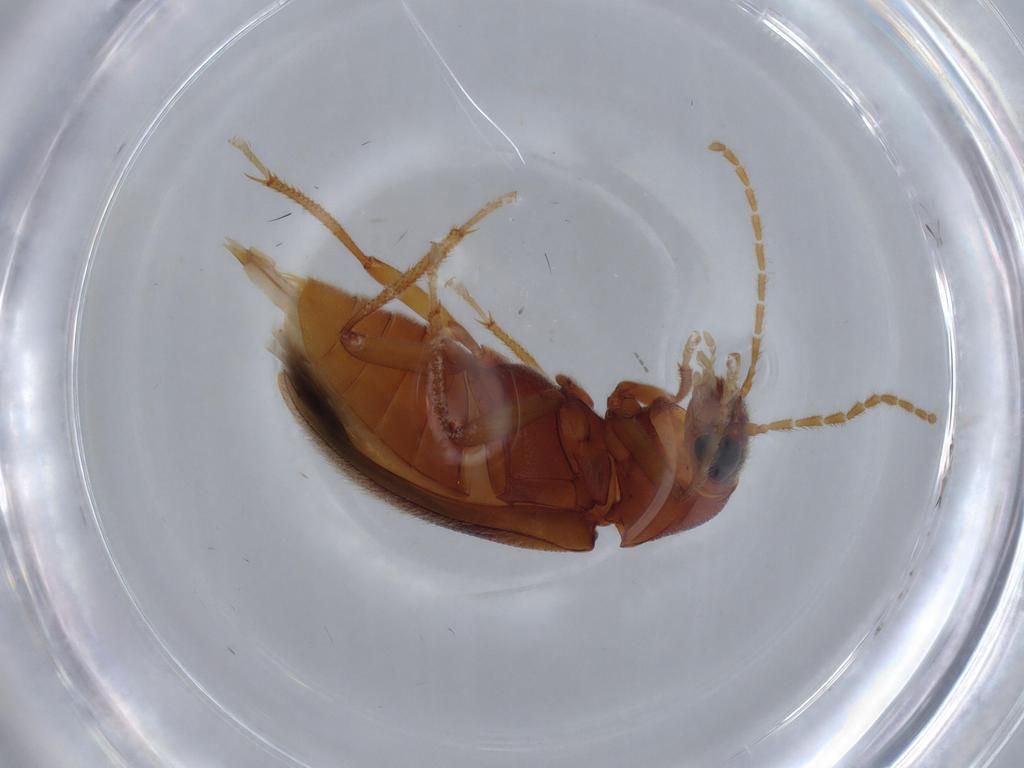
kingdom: Animalia
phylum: Arthropoda
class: Insecta
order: Coleoptera
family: Ptilodactylidae
